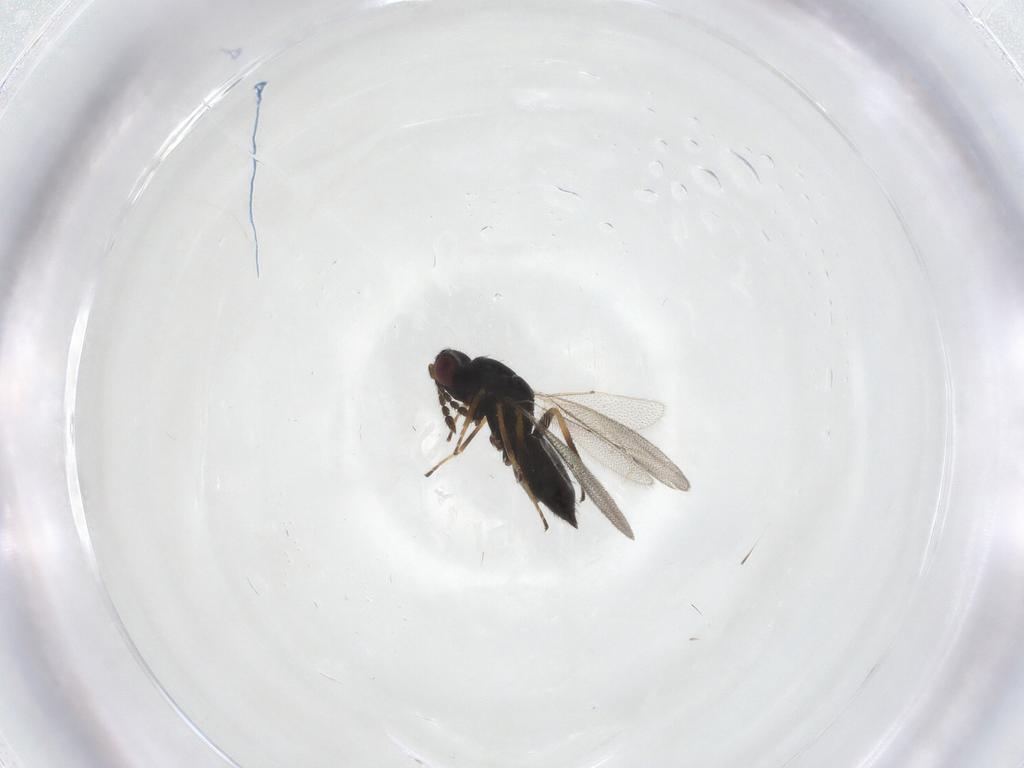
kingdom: Animalia
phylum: Arthropoda
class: Insecta
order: Hymenoptera
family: Eulophidae
